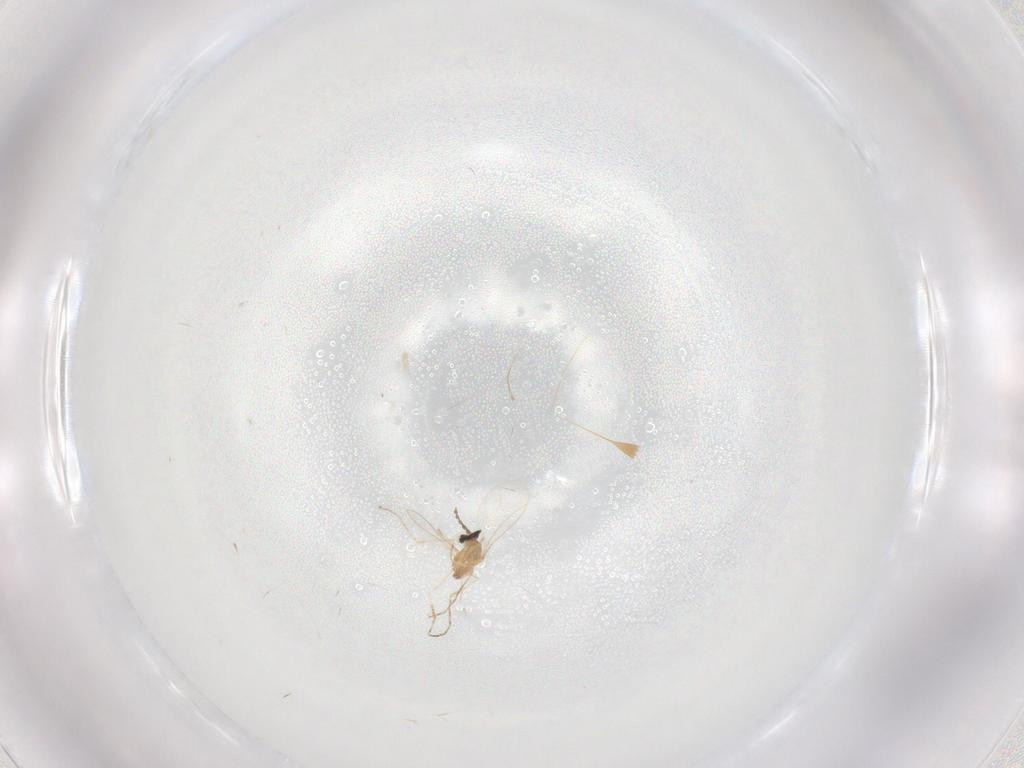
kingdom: Animalia
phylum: Arthropoda
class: Insecta
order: Diptera
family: Cecidomyiidae
